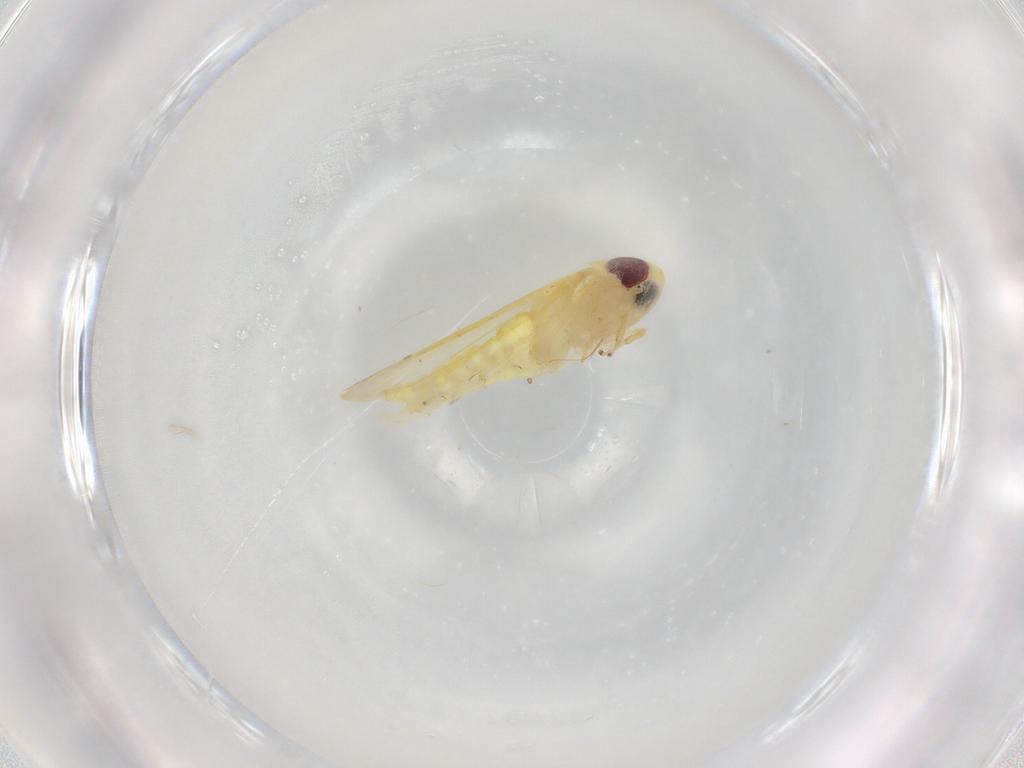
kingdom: Animalia
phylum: Arthropoda
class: Insecta
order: Hemiptera
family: Cicadellidae
